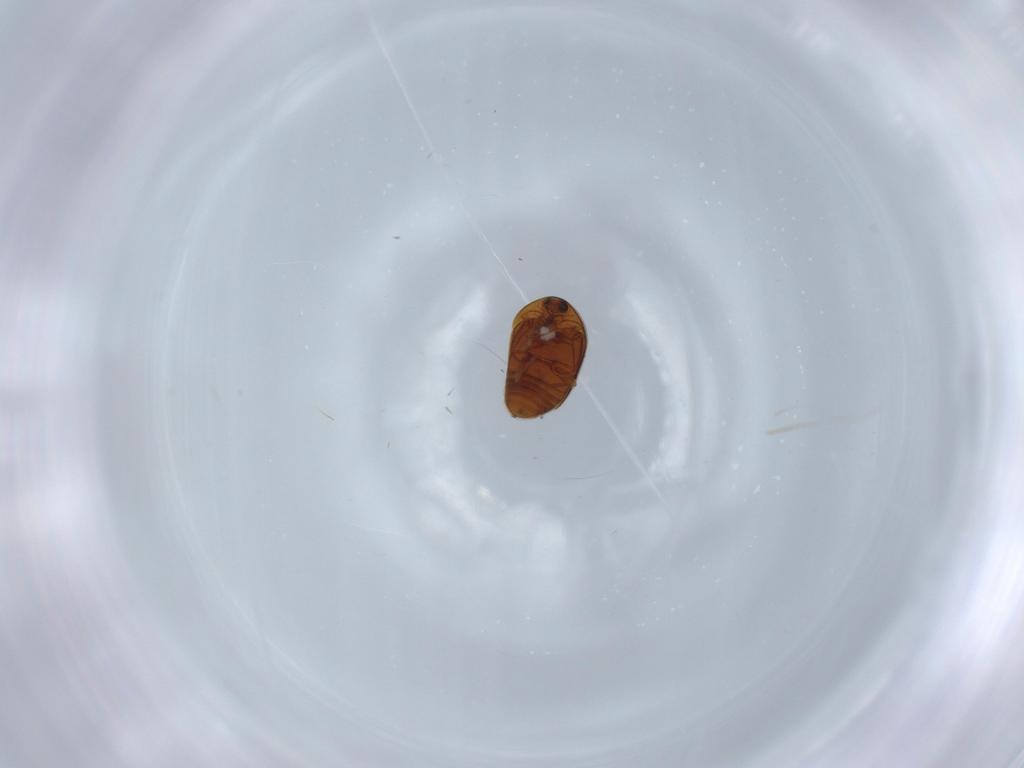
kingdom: Animalia
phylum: Arthropoda
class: Insecta
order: Coleoptera
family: Corylophidae
